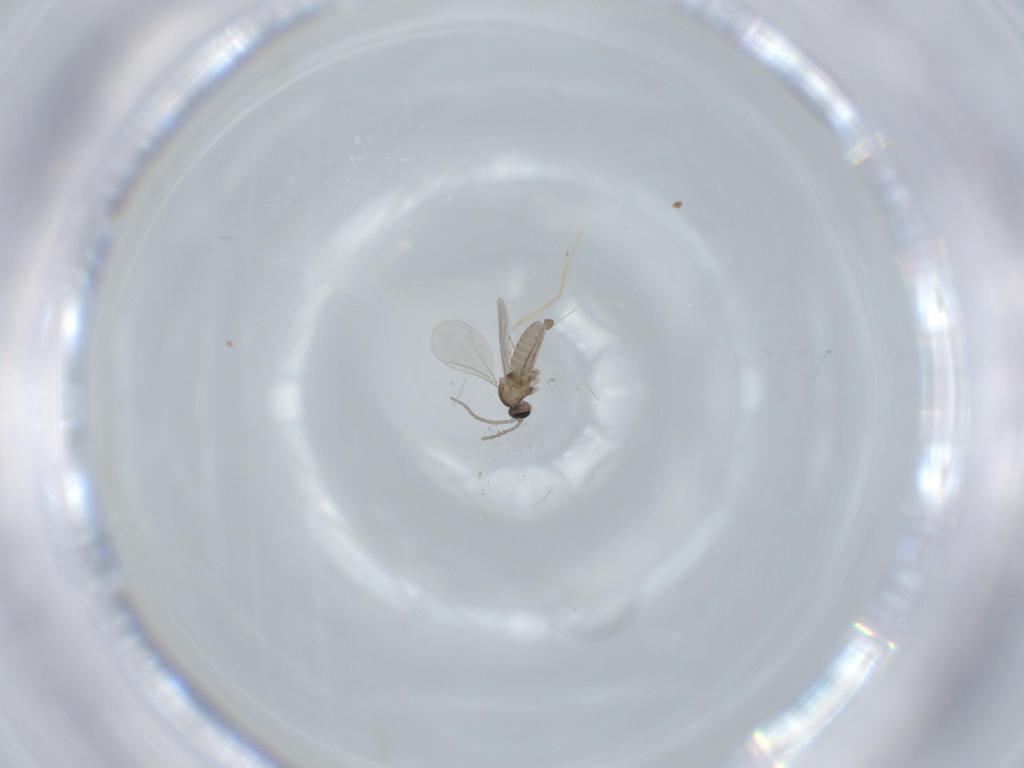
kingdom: Animalia
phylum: Arthropoda
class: Insecta
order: Diptera
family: Cecidomyiidae
